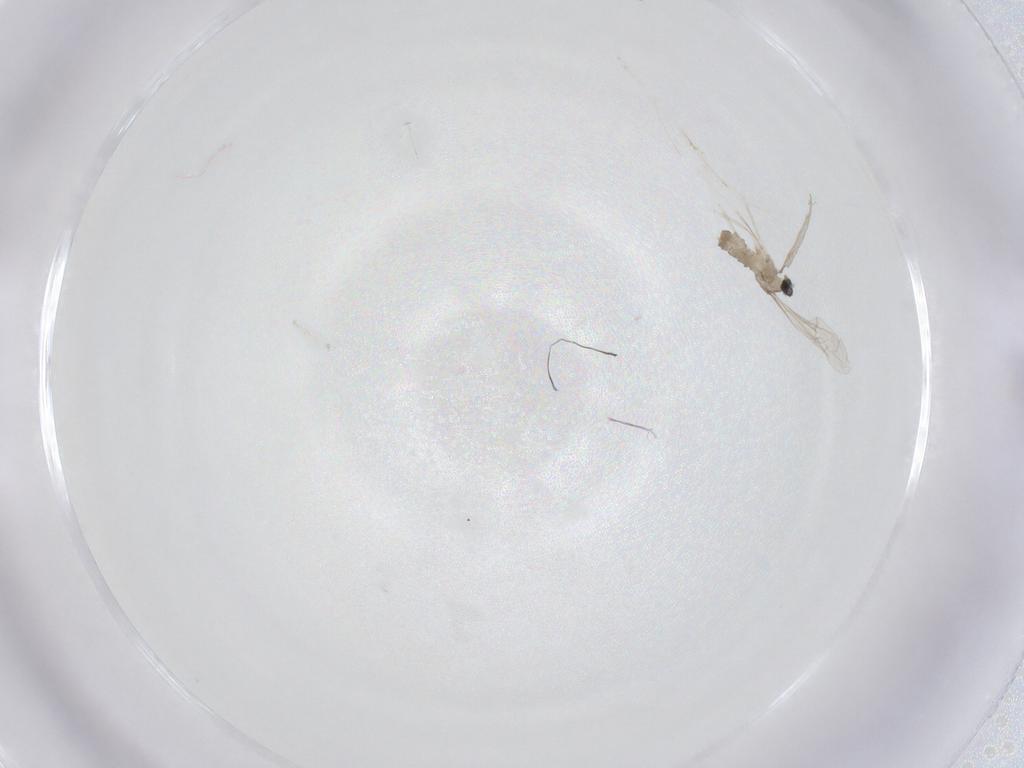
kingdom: Animalia
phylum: Arthropoda
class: Insecta
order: Diptera
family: Cecidomyiidae
